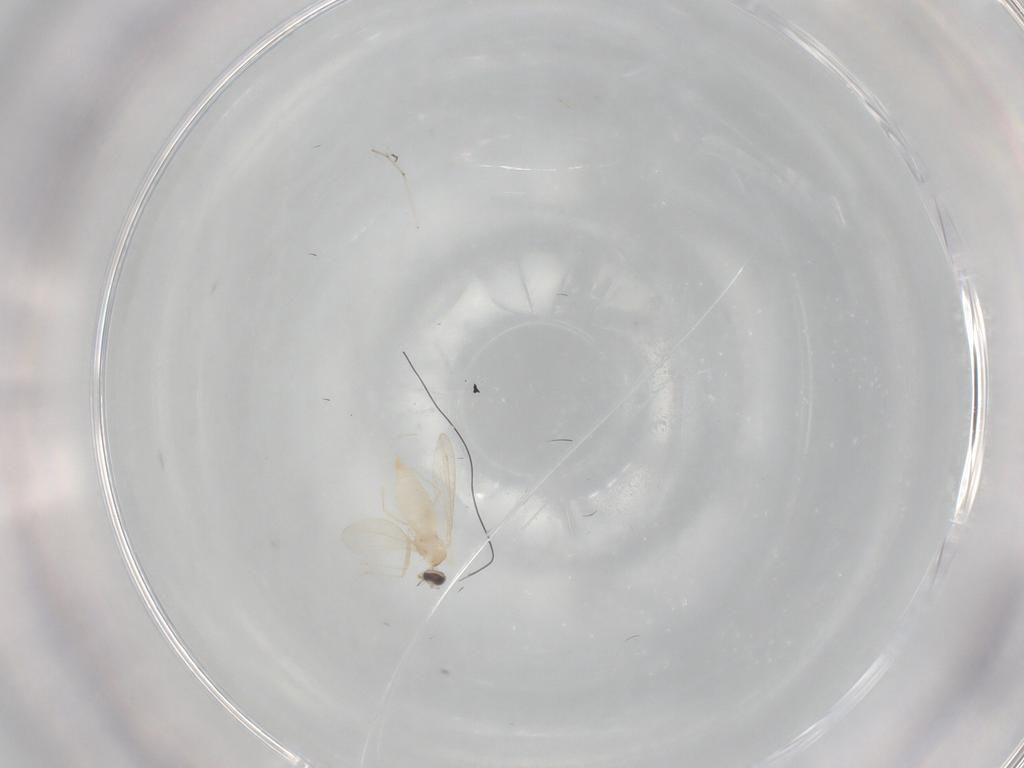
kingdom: Animalia
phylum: Arthropoda
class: Insecta
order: Diptera
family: Cecidomyiidae
